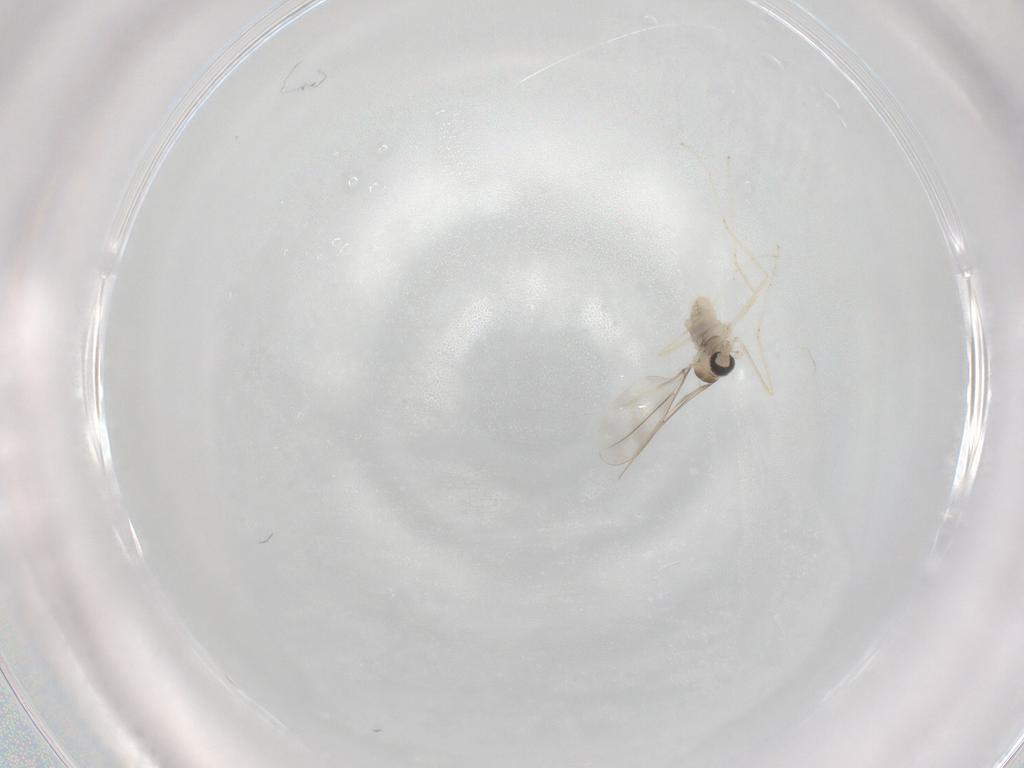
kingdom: Animalia
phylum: Arthropoda
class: Insecta
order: Diptera
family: Cecidomyiidae
